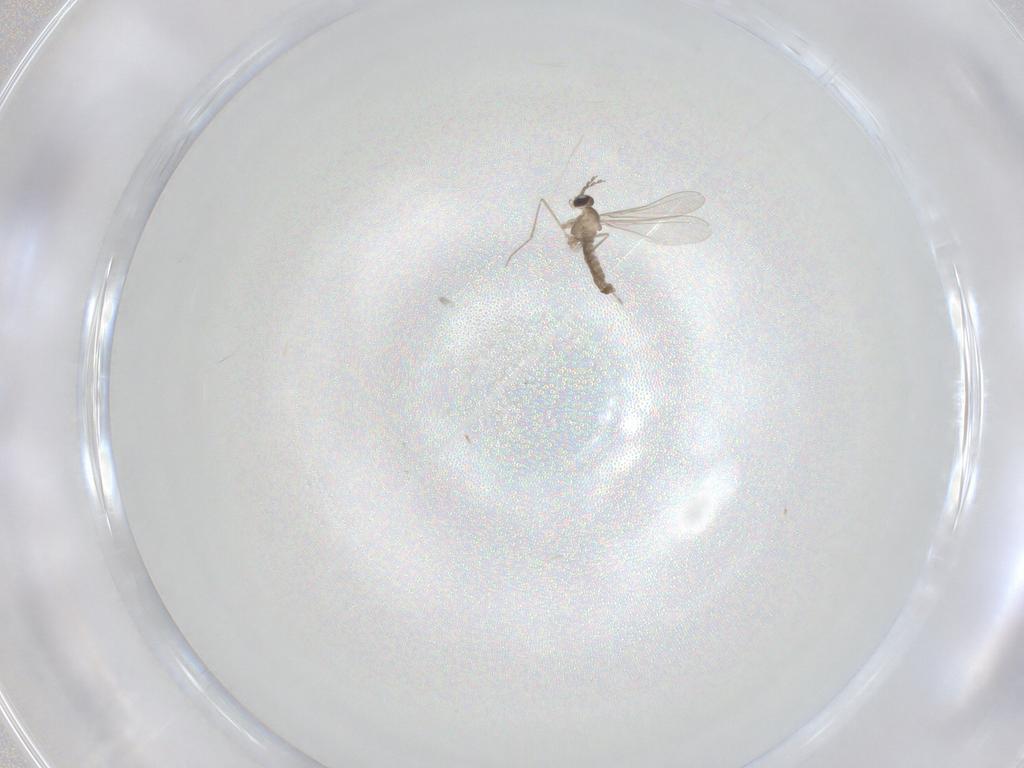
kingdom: Animalia
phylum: Arthropoda
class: Insecta
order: Diptera
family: Cecidomyiidae
